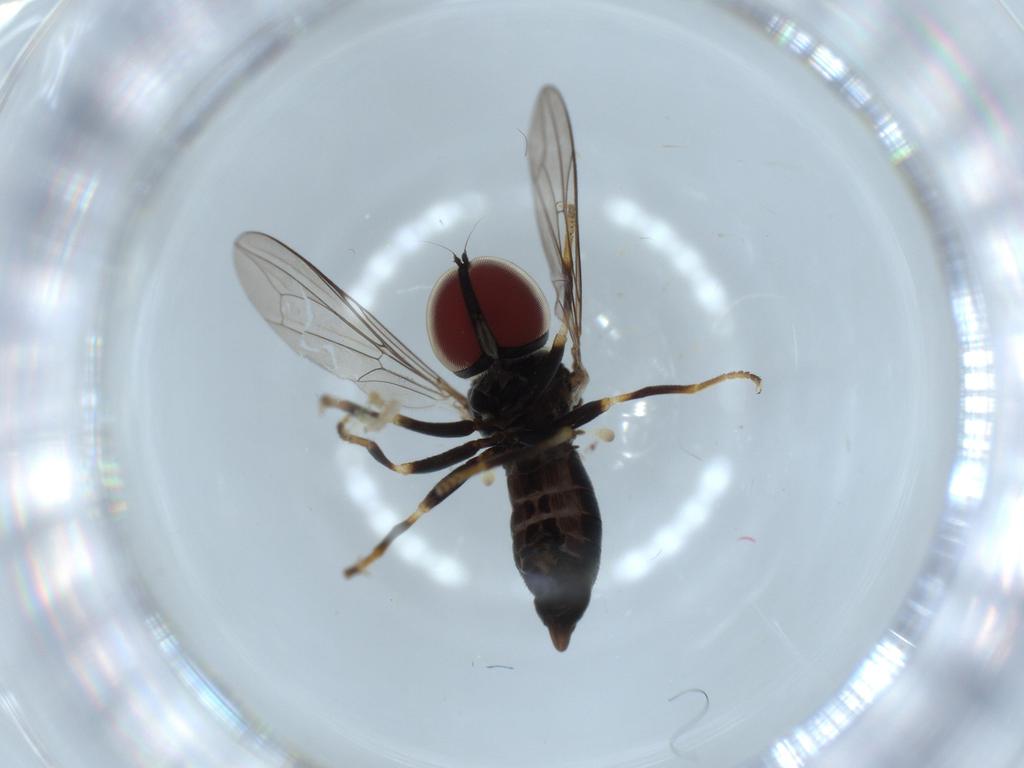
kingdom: Animalia
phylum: Arthropoda
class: Insecta
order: Diptera
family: Pipunculidae
